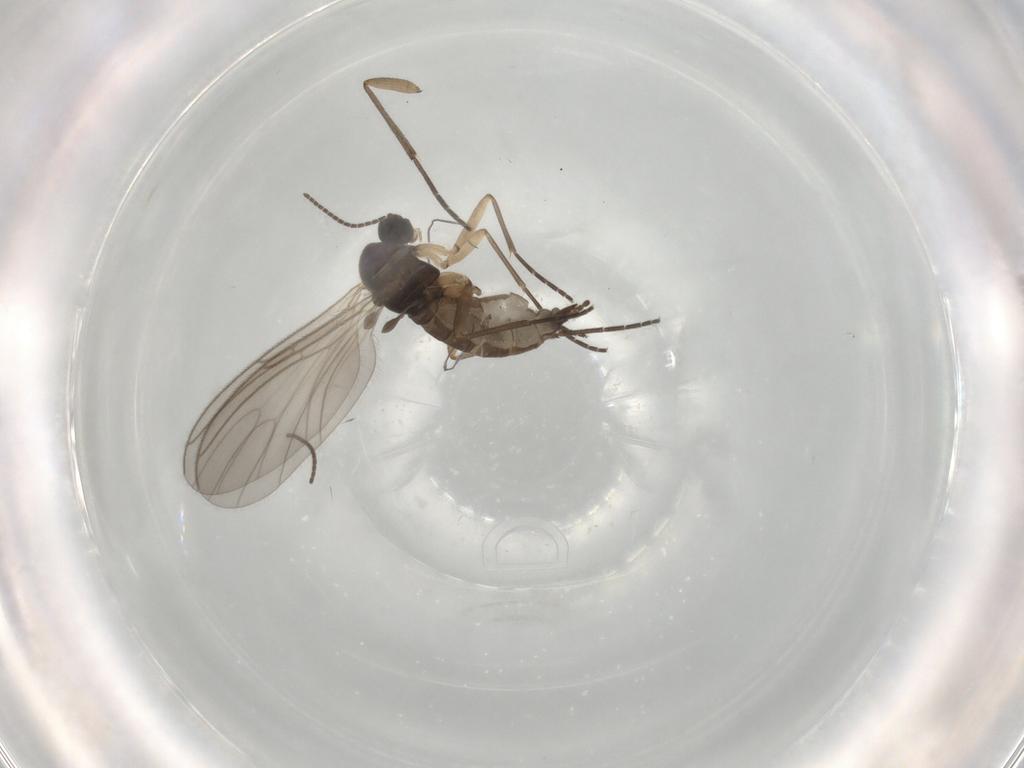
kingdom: Animalia
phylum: Arthropoda
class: Insecta
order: Diptera
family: Sciaridae
